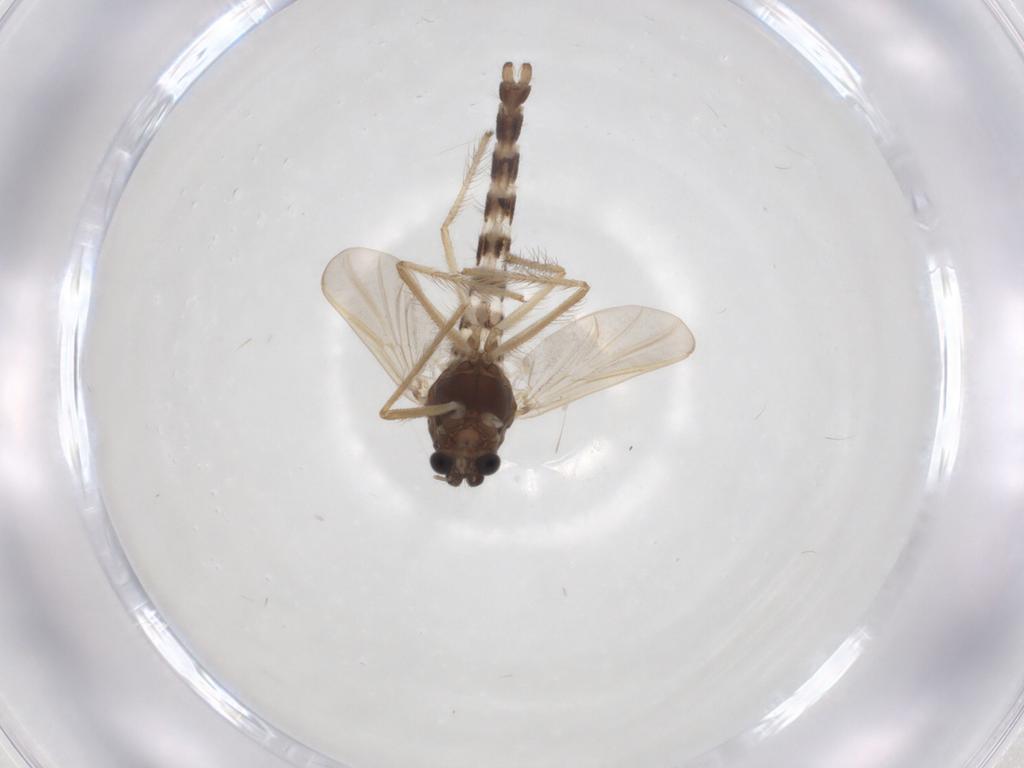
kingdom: Animalia
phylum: Arthropoda
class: Insecta
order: Diptera
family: Chironomidae
